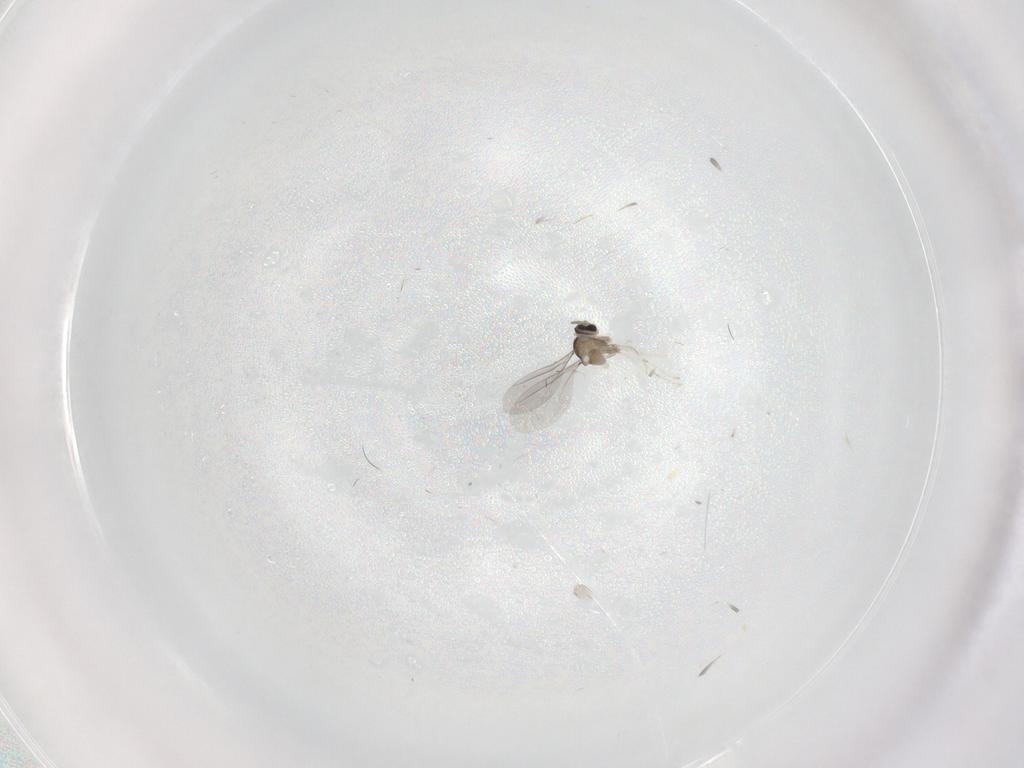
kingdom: Animalia
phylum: Arthropoda
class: Insecta
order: Diptera
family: Cecidomyiidae
